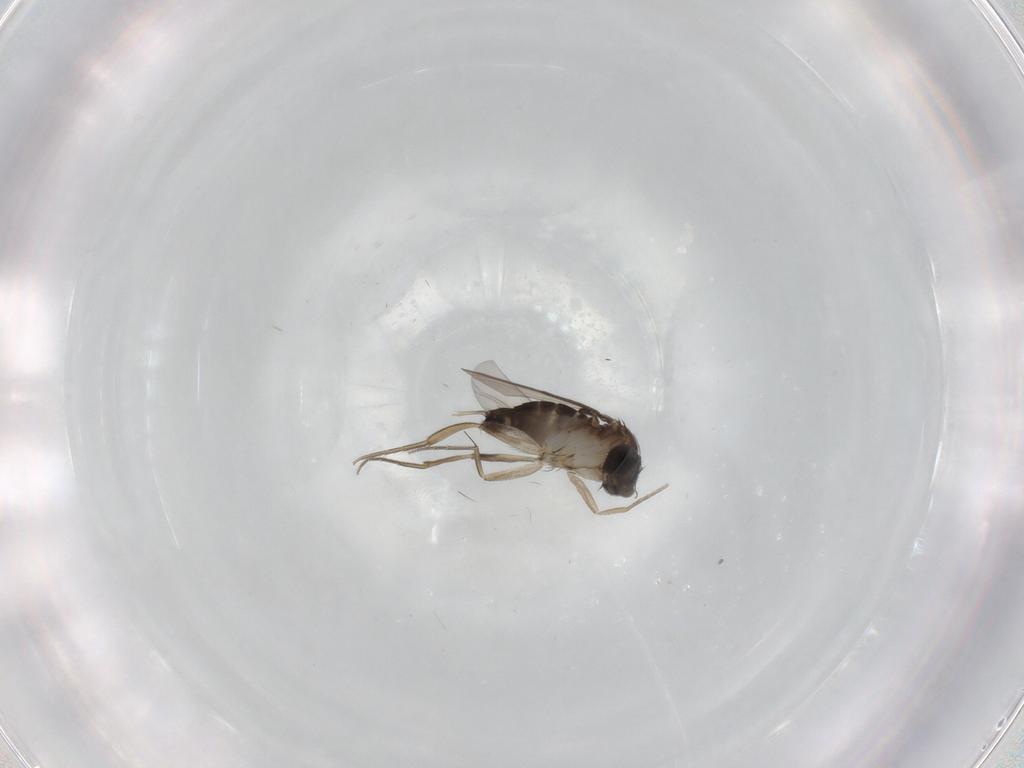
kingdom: Animalia
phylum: Arthropoda
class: Insecta
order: Diptera
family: Phoridae
